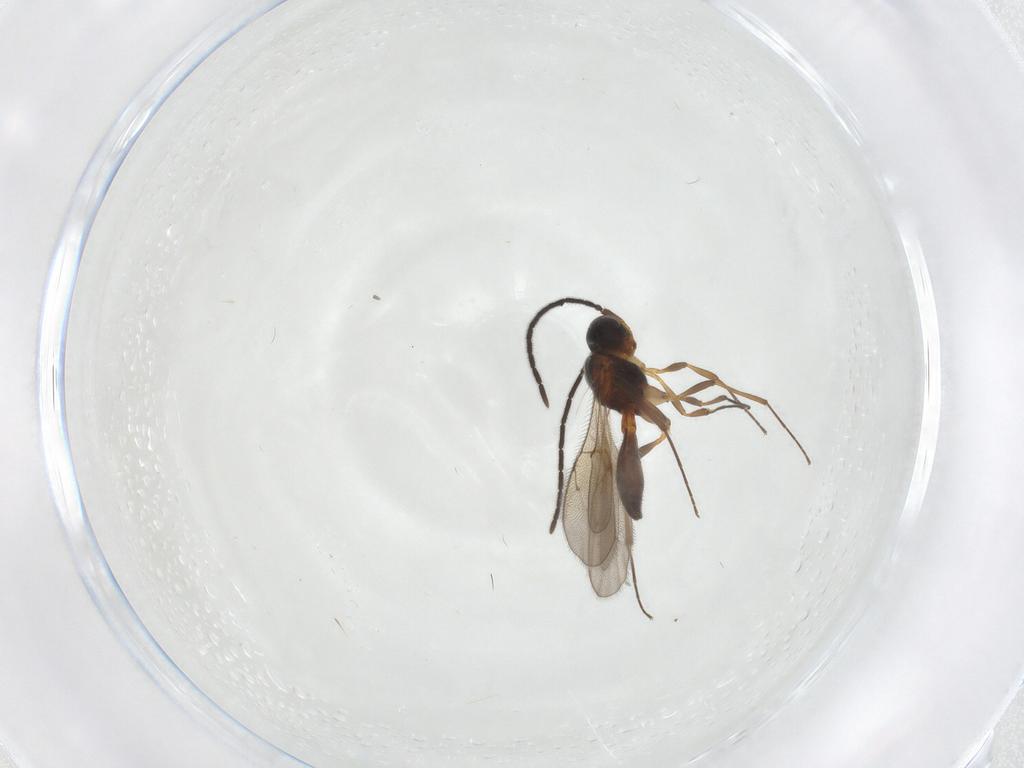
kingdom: Animalia
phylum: Arthropoda
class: Insecta
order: Hymenoptera
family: Scelionidae
